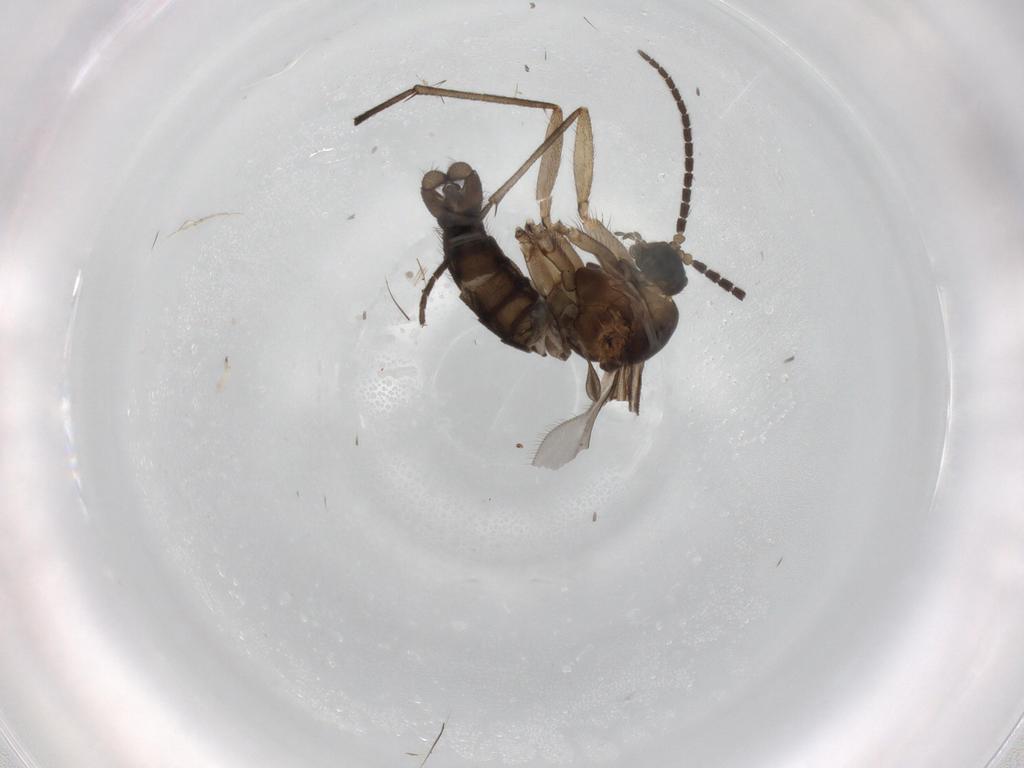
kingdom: Animalia
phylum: Arthropoda
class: Insecta
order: Diptera
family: Sciaridae
